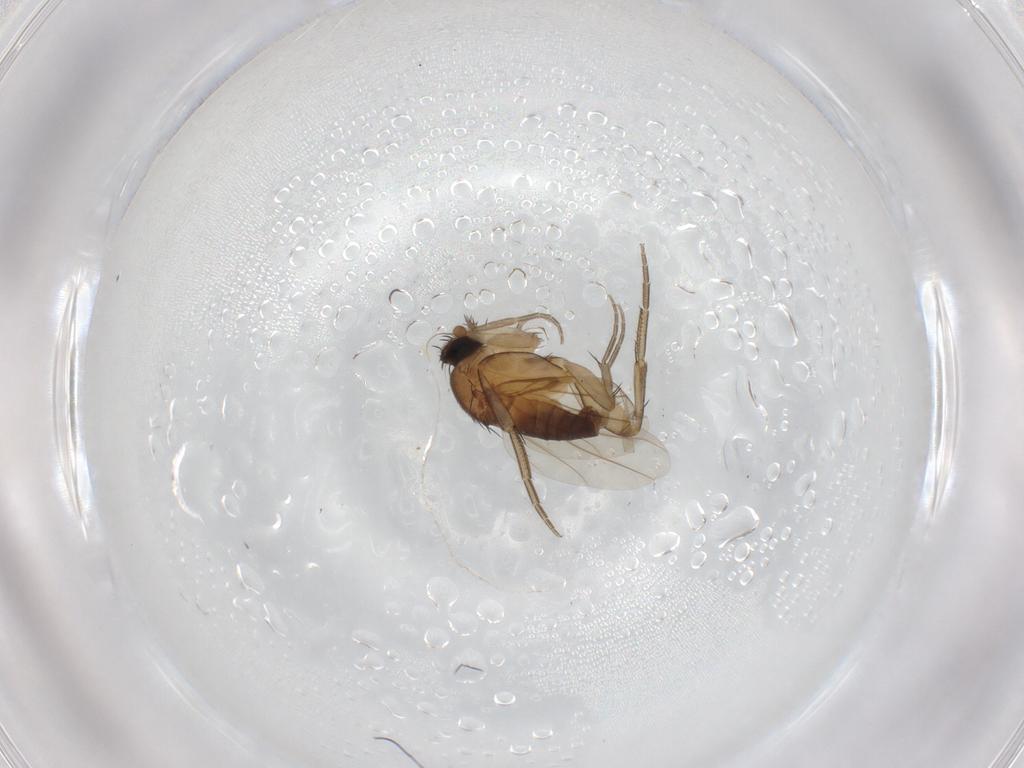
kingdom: Animalia
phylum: Arthropoda
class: Insecta
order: Diptera
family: Phoridae
